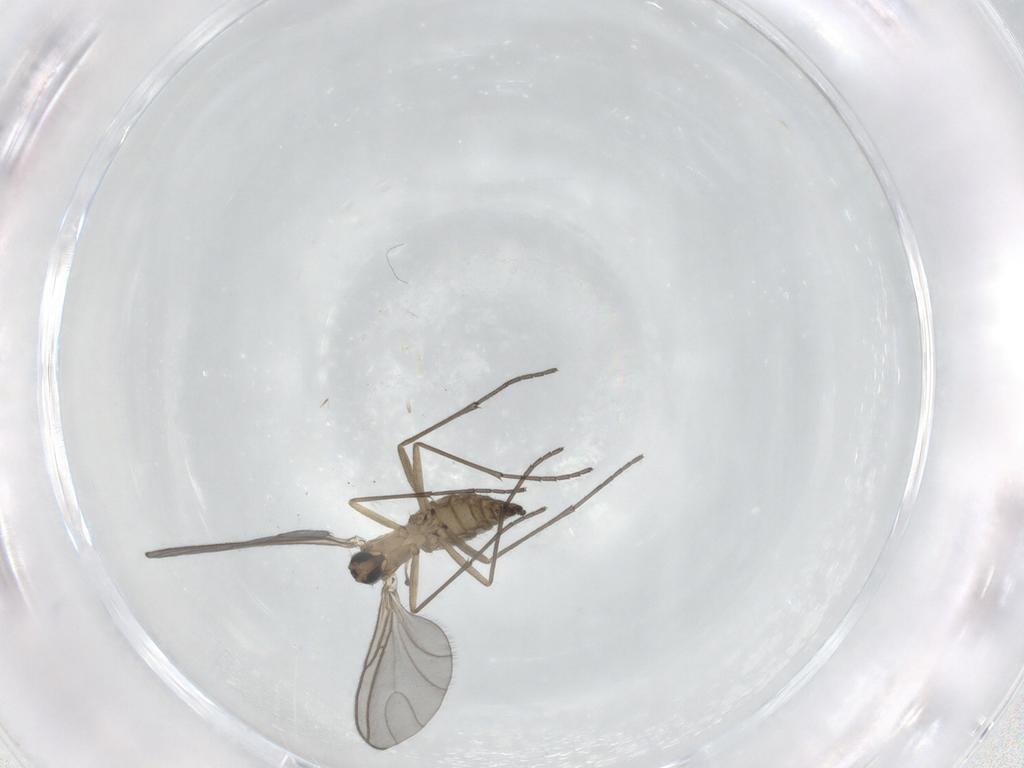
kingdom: Animalia
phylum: Arthropoda
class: Insecta
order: Diptera
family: Sciaridae
